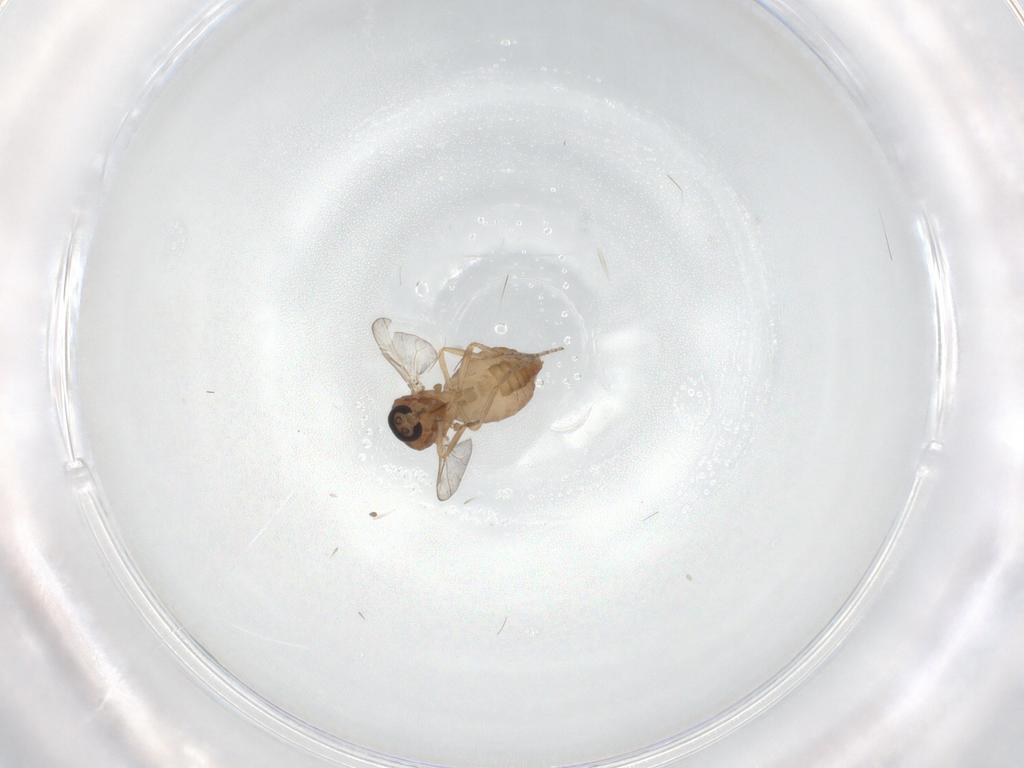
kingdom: Animalia
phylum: Arthropoda
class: Insecta
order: Diptera
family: Ceratopogonidae
